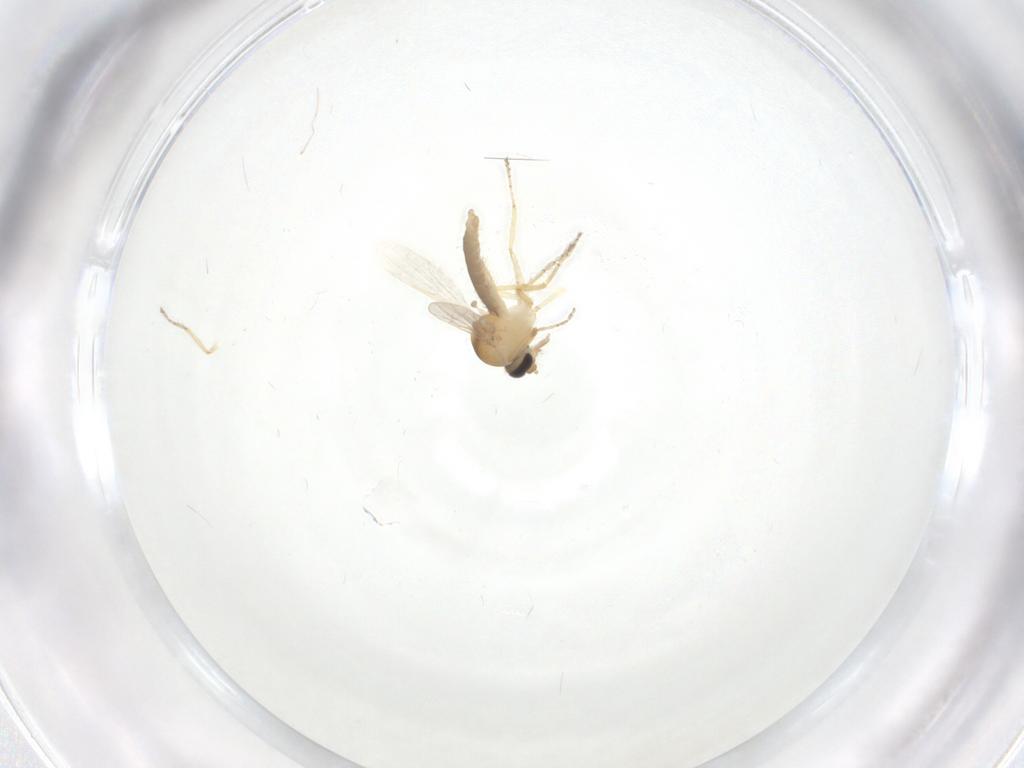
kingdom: Animalia
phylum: Arthropoda
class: Insecta
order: Diptera
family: Ceratopogonidae
